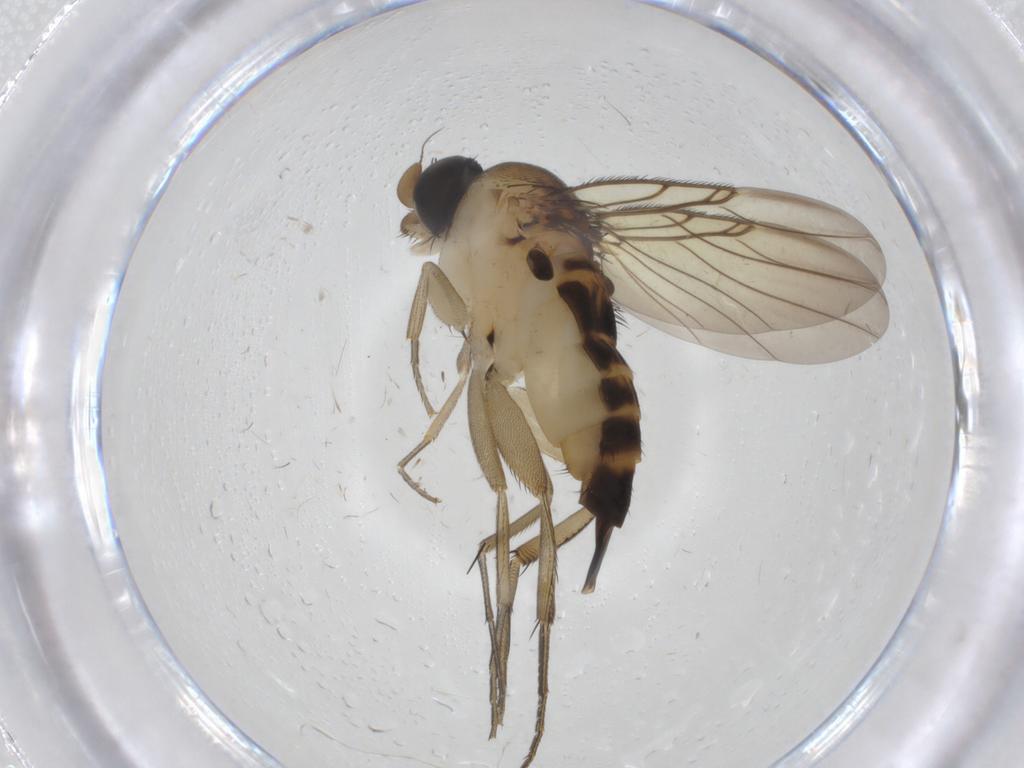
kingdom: Animalia
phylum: Arthropoda
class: Insecta
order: Diptera
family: Phoridae
